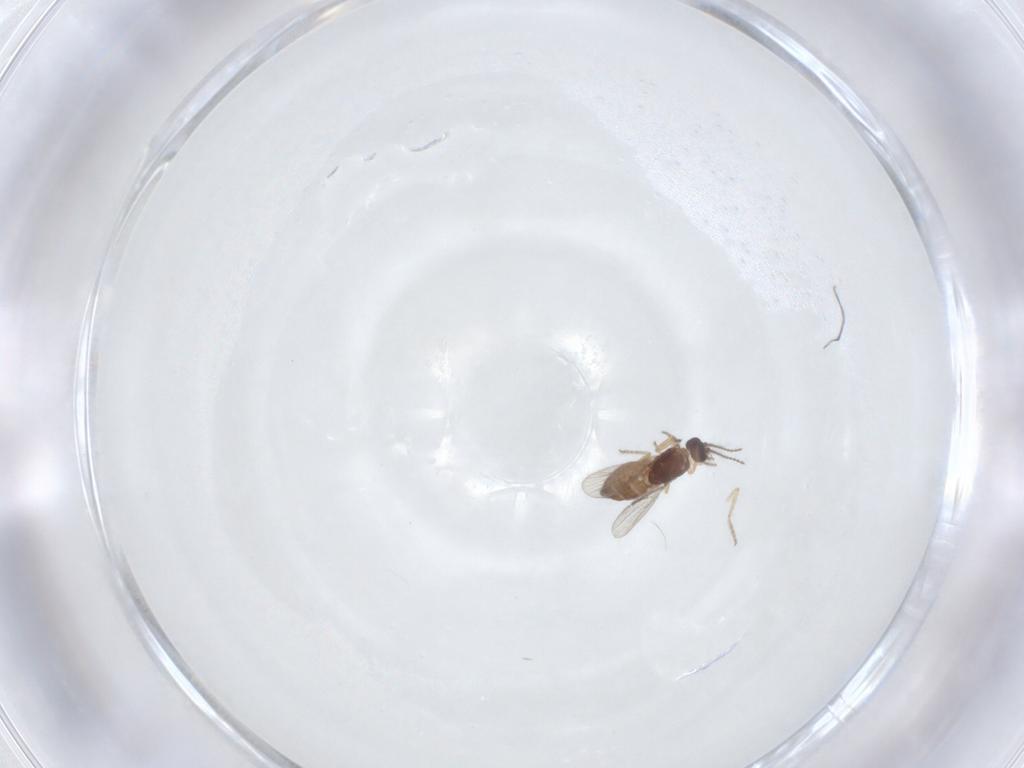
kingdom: Animalia
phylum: Arthropoda
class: Insecta
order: Diptera
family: Ceratopogonidae
